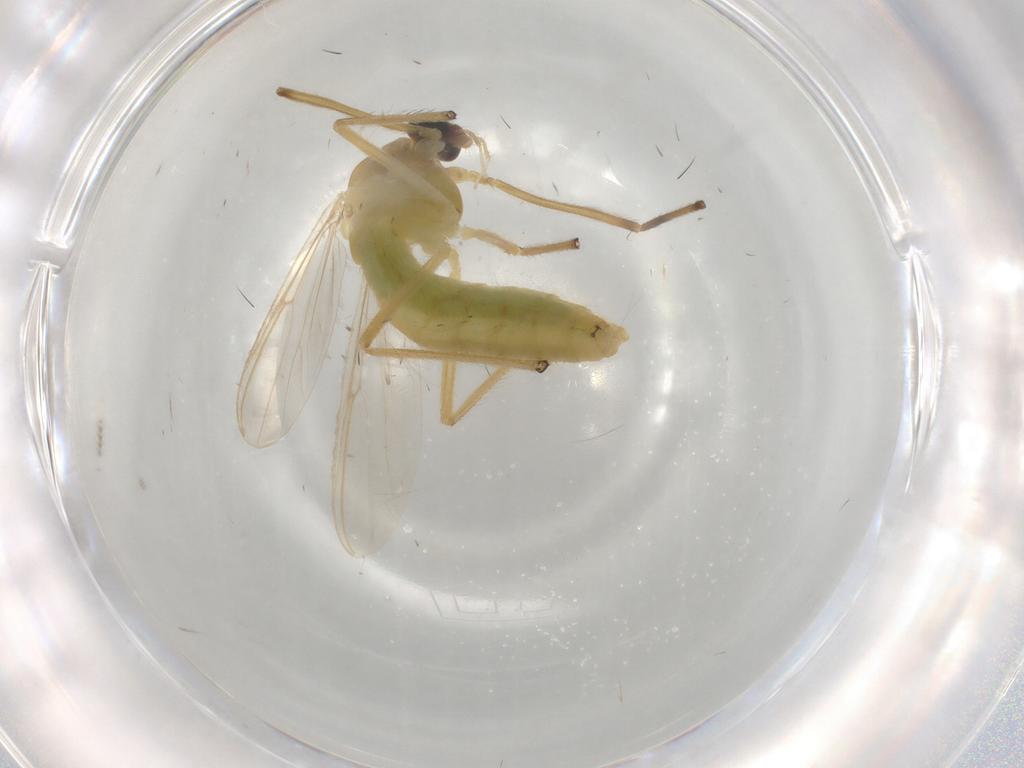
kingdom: Animalia
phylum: Arthropoda
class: Insecta
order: Diptera
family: Chironomidae
